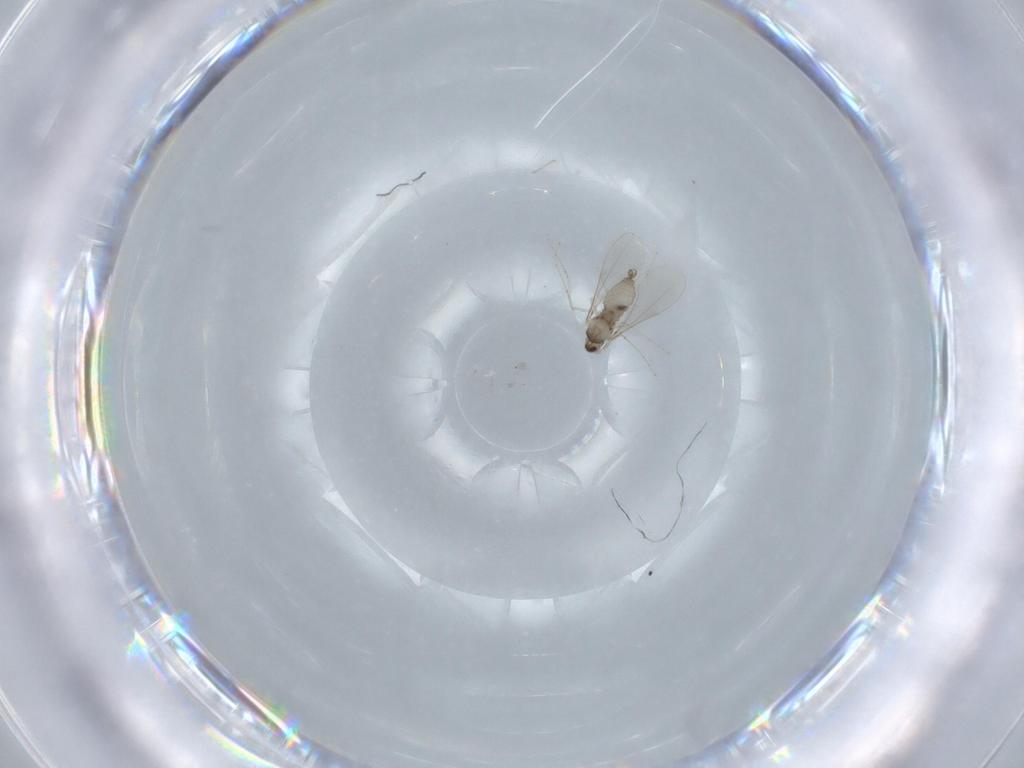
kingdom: Animalia
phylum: Arthropoda
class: Insecta
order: Diptera
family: Cecidomyiidae
